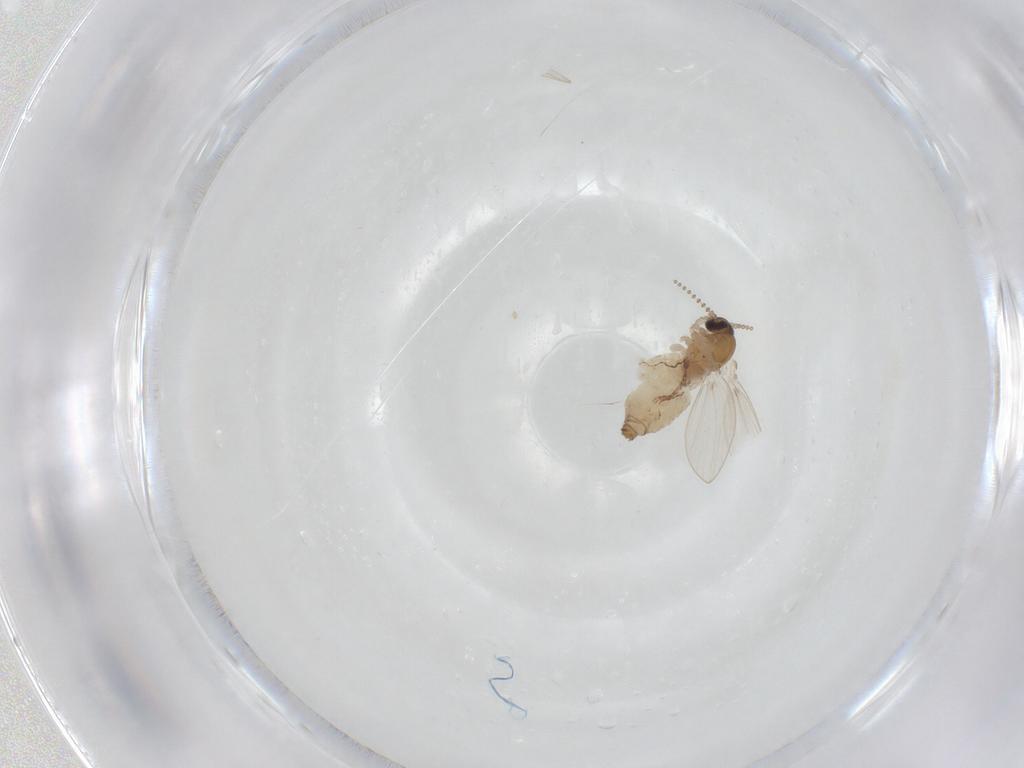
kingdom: Animalia
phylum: Arthropoda
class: Insecta
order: Diptera
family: Psychodidae
